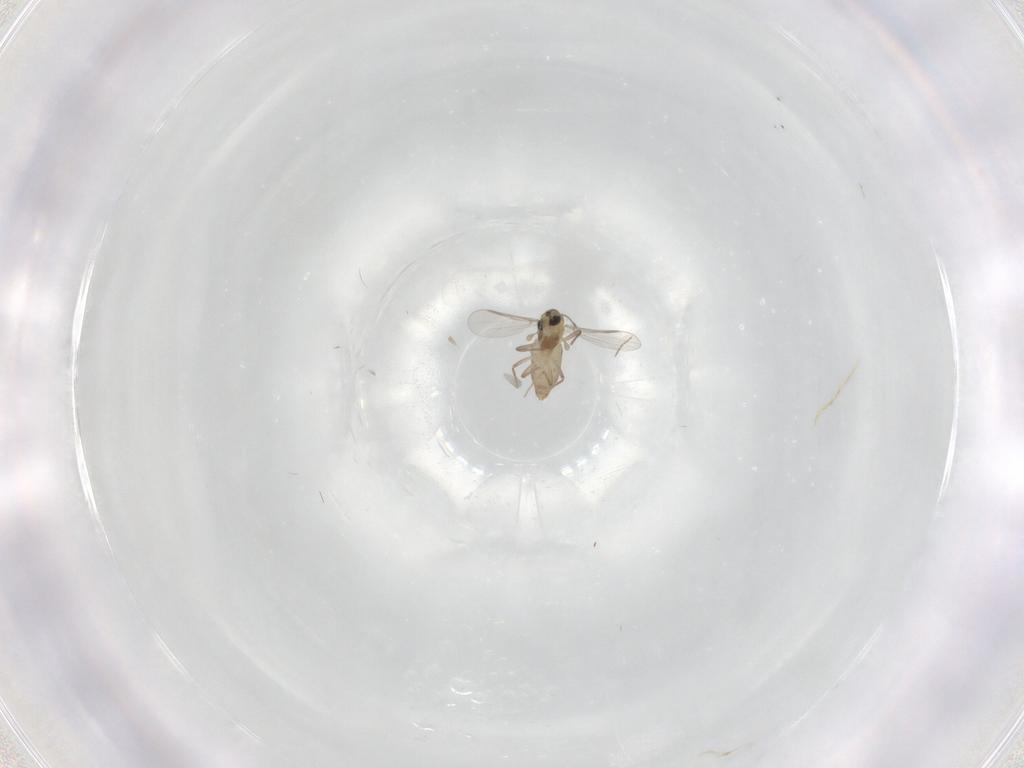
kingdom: Animalia
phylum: Arthropoda
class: Insecta
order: Diptera
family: Chironomidae
